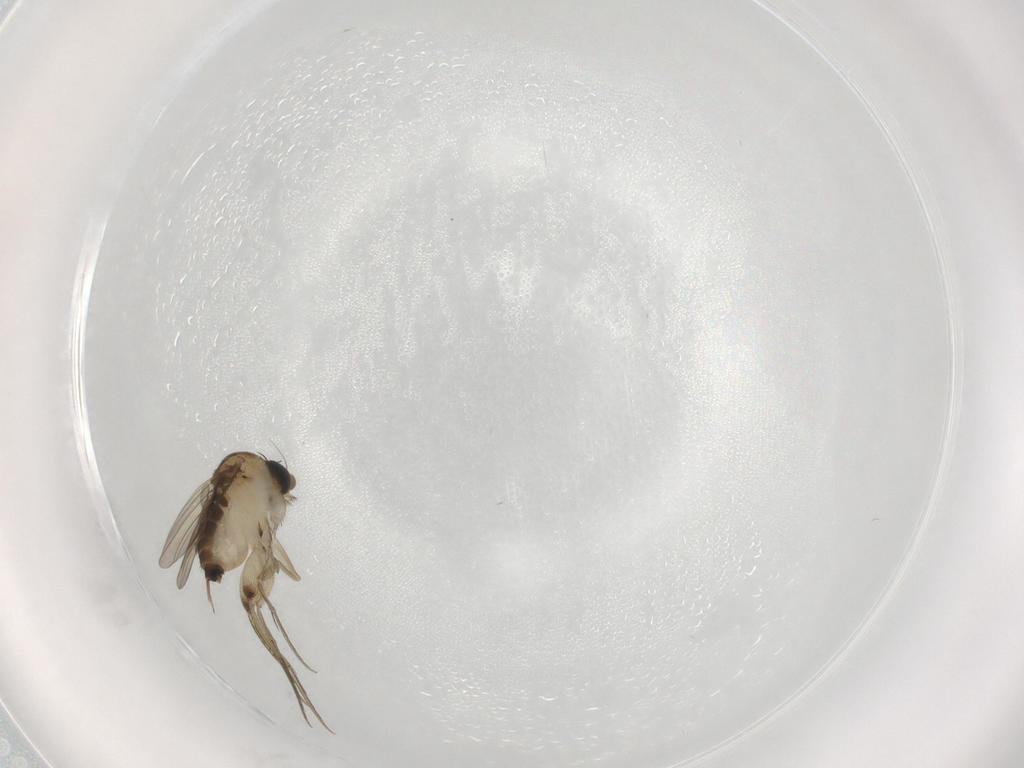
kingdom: Animalia
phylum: Arthropoda
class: Insecta
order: Diptera
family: Phoridae
